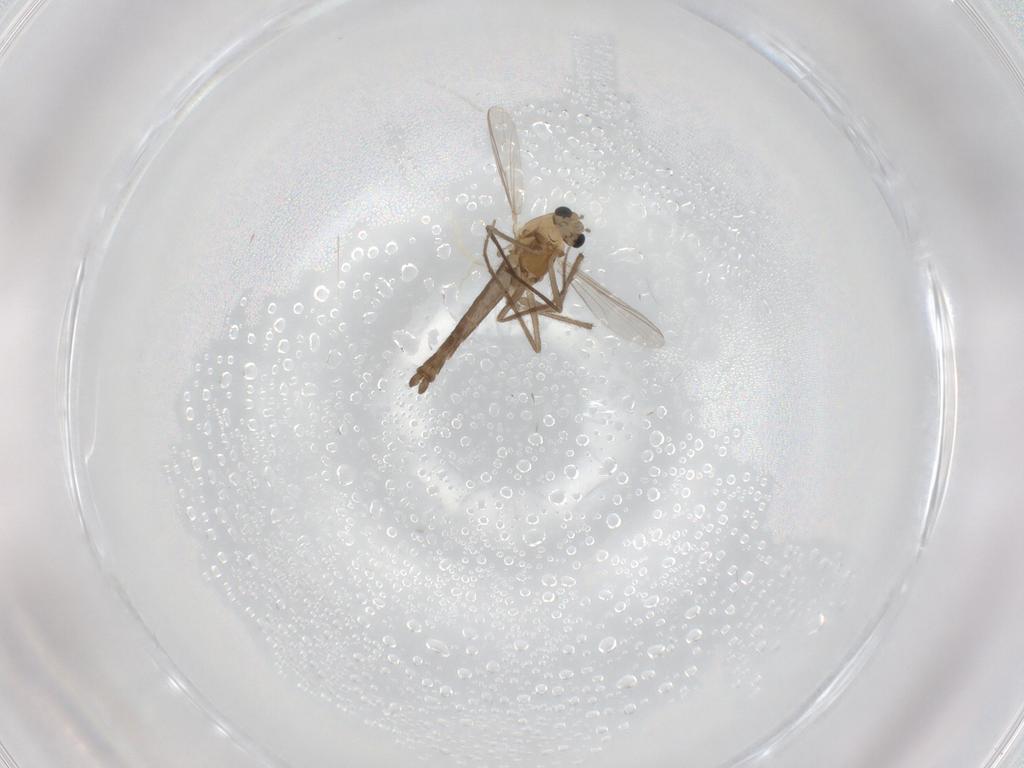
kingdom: Animalia
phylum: Arthropoda
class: Insecta
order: Diptera
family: Chironomidae
